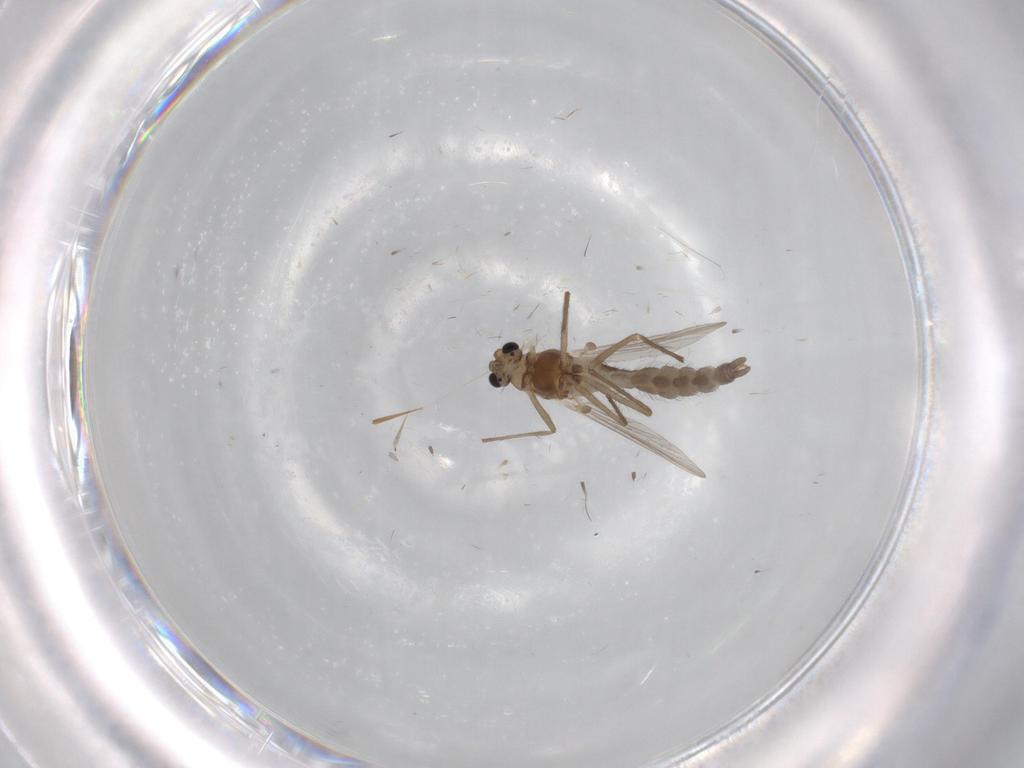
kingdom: Animalia
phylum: Arthropoda
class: Insecta
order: Diptera
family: Chironomidae
